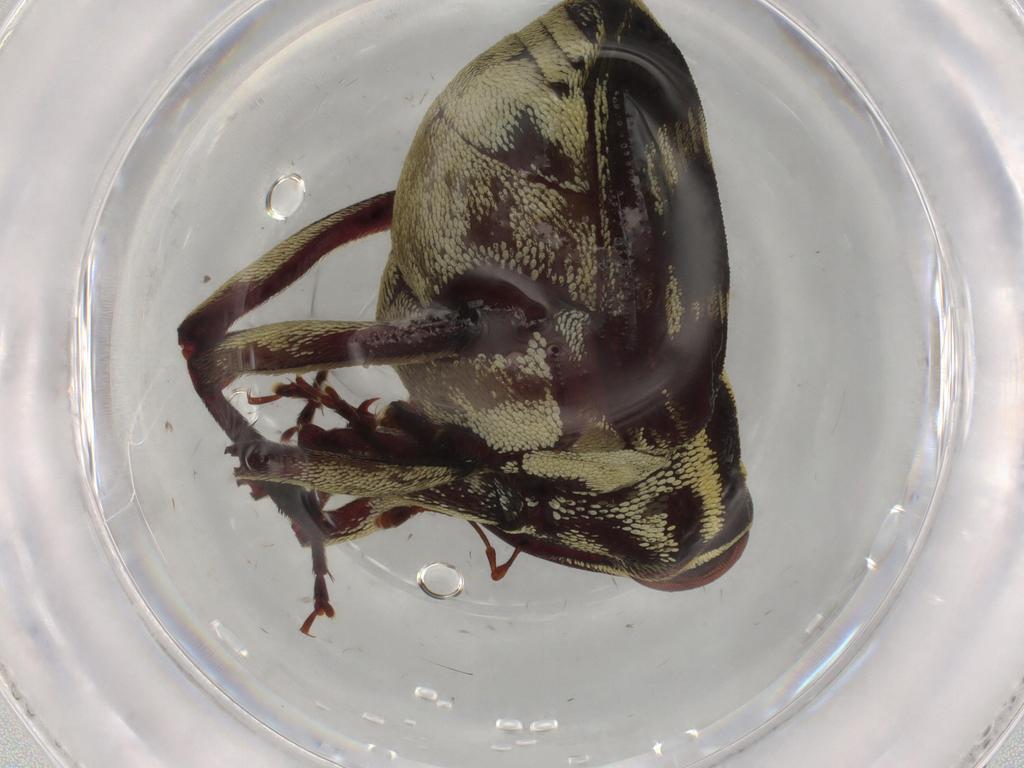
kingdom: Animalia
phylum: Arthropoda
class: Insecta
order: Coleoptera
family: Curculionidae
